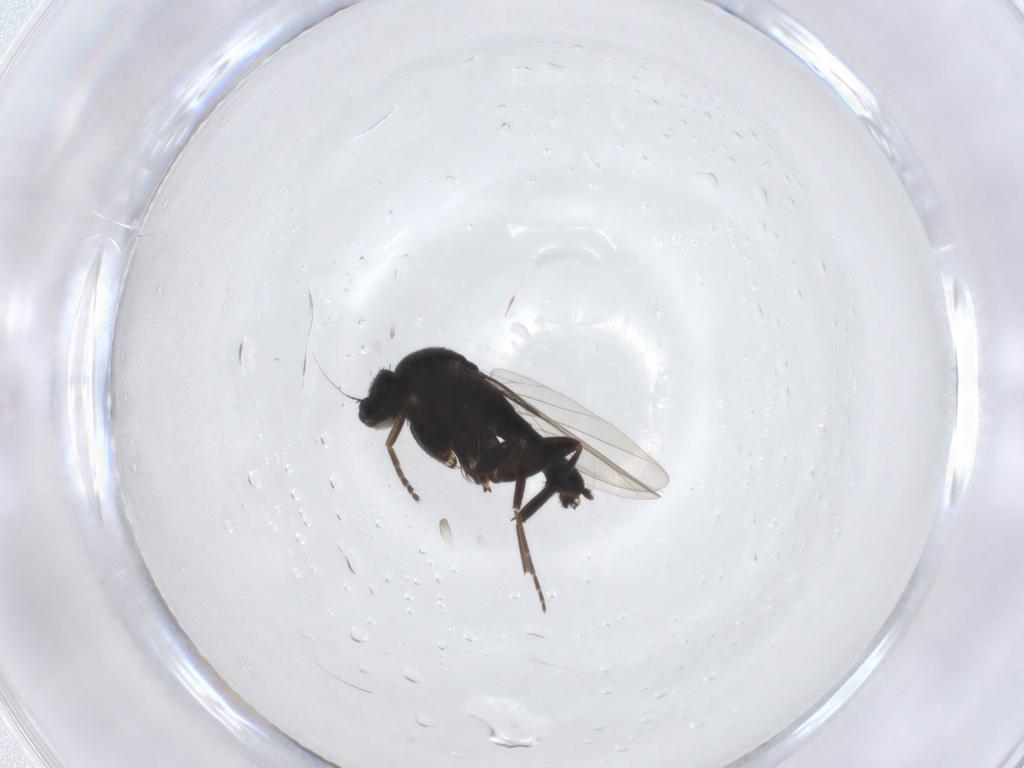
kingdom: Animalia
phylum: Arthropoda
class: Insecta
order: Diptera
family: Phoridae
